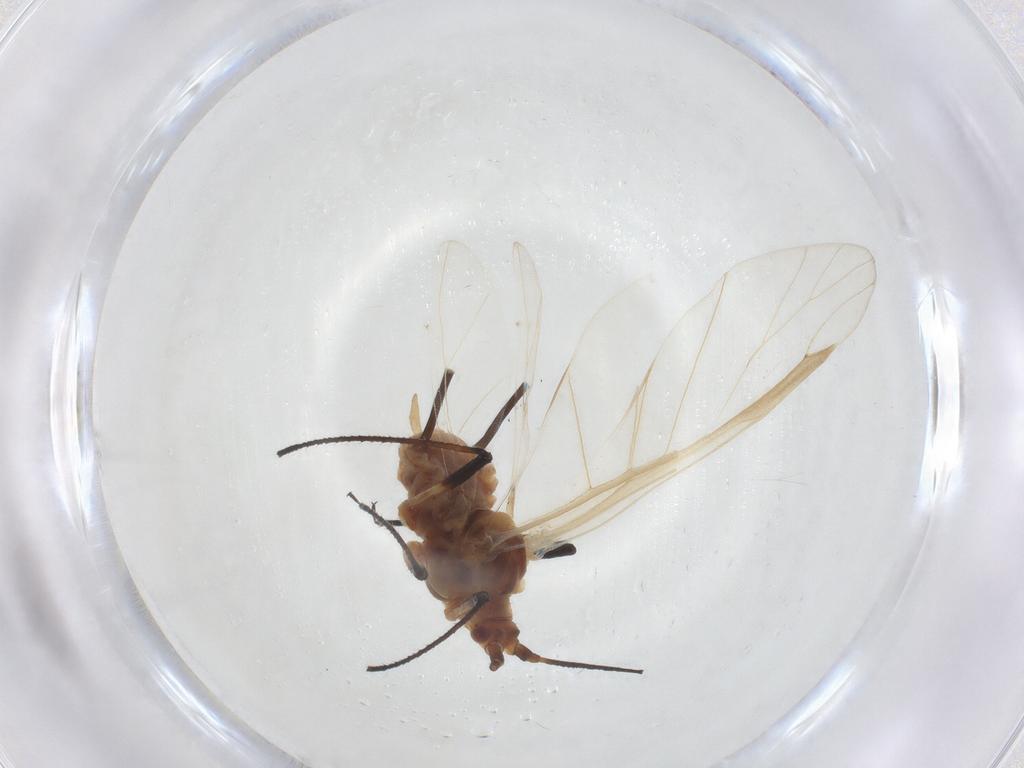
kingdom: Animalia
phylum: Arthropoda
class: Insecta
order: Hemiptera
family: Aphididae
